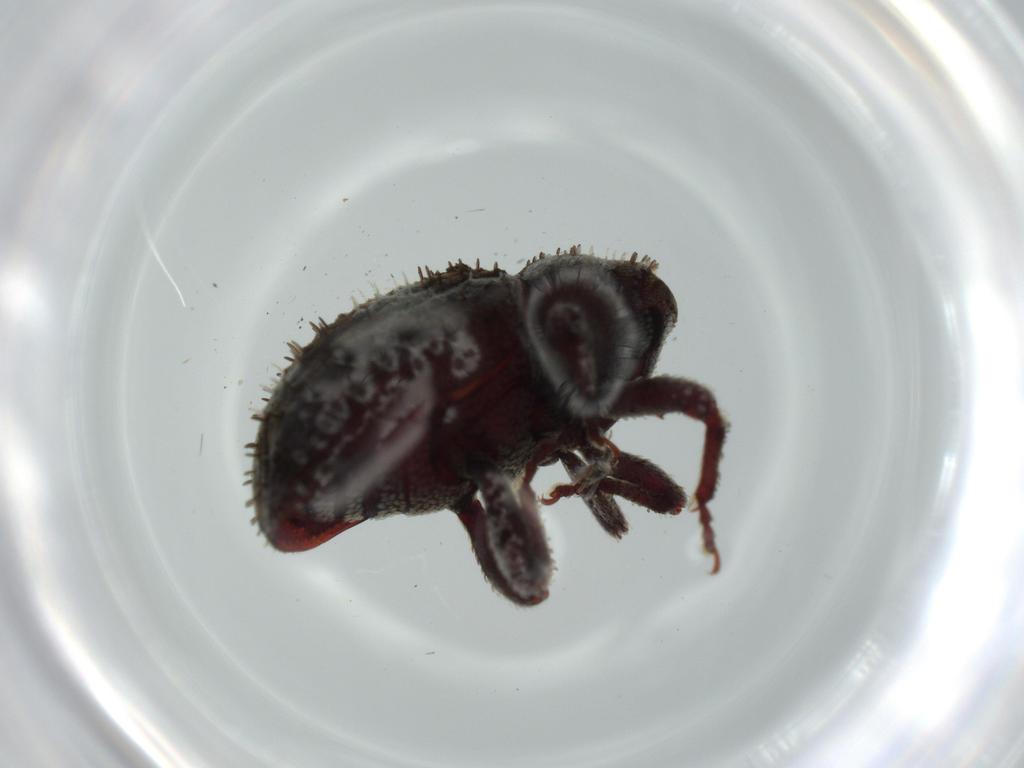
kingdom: Animalia
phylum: Arthropoda
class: Insecta
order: Coleoptera
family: Curculionidae
